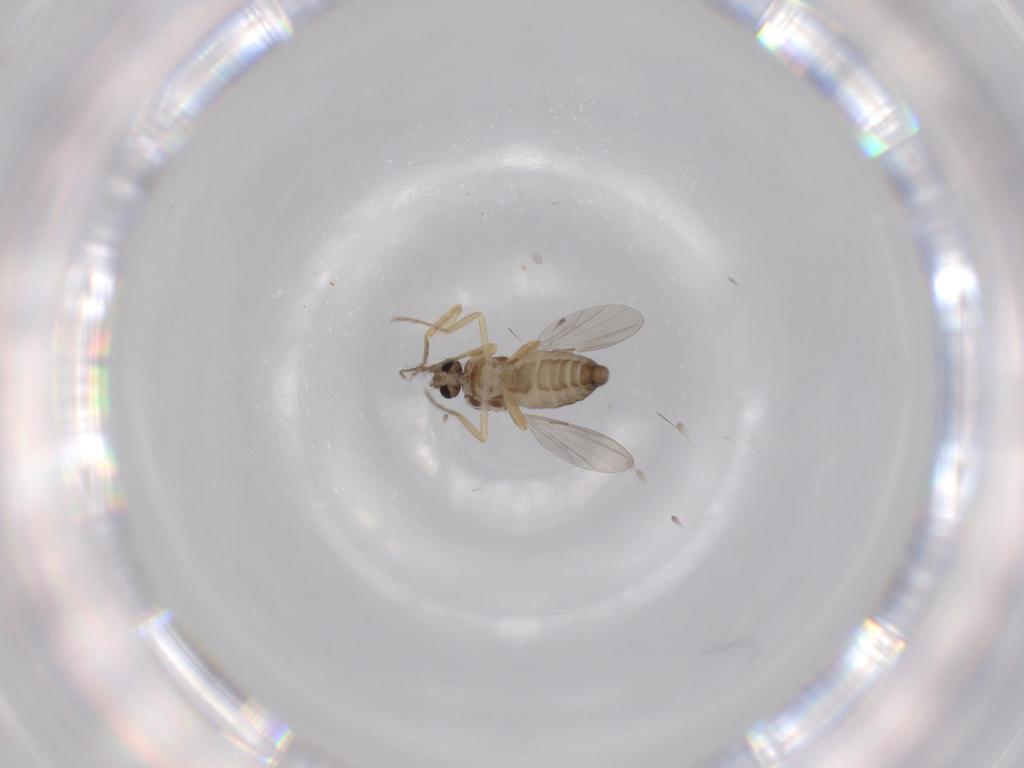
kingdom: Animalia
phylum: Arthropoda
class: Insecta
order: Diptera
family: Ceratopogonidae
